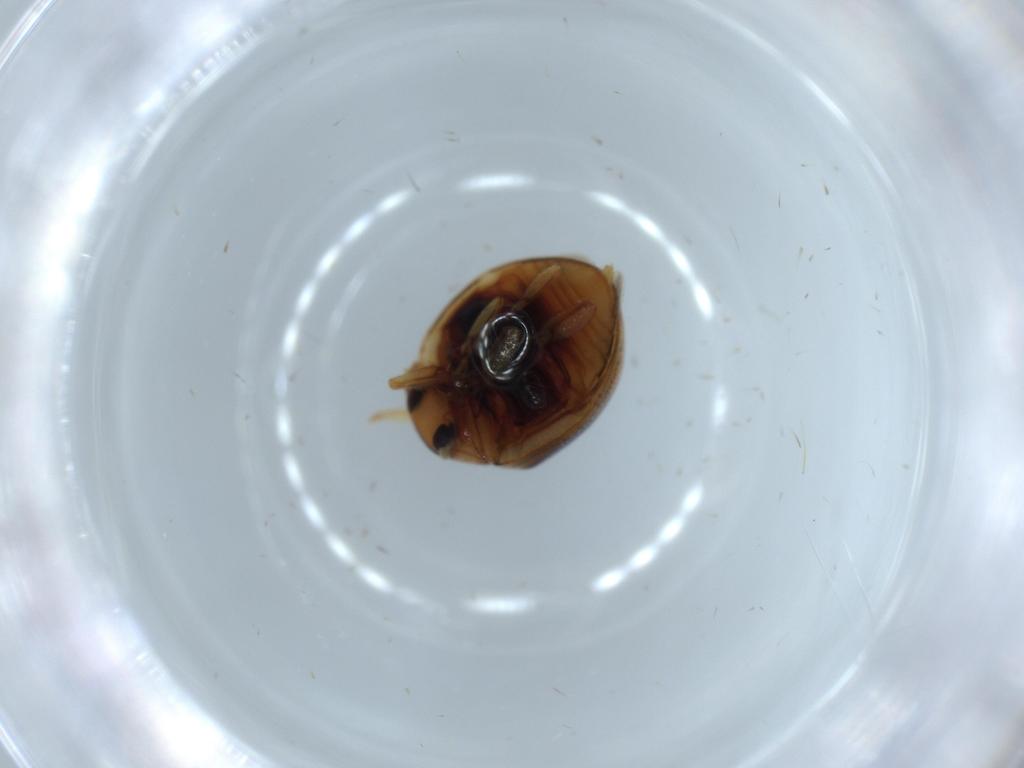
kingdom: Animalia
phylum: Arthropoda
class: Insecta
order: Coleoptera
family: Coccinellidae
